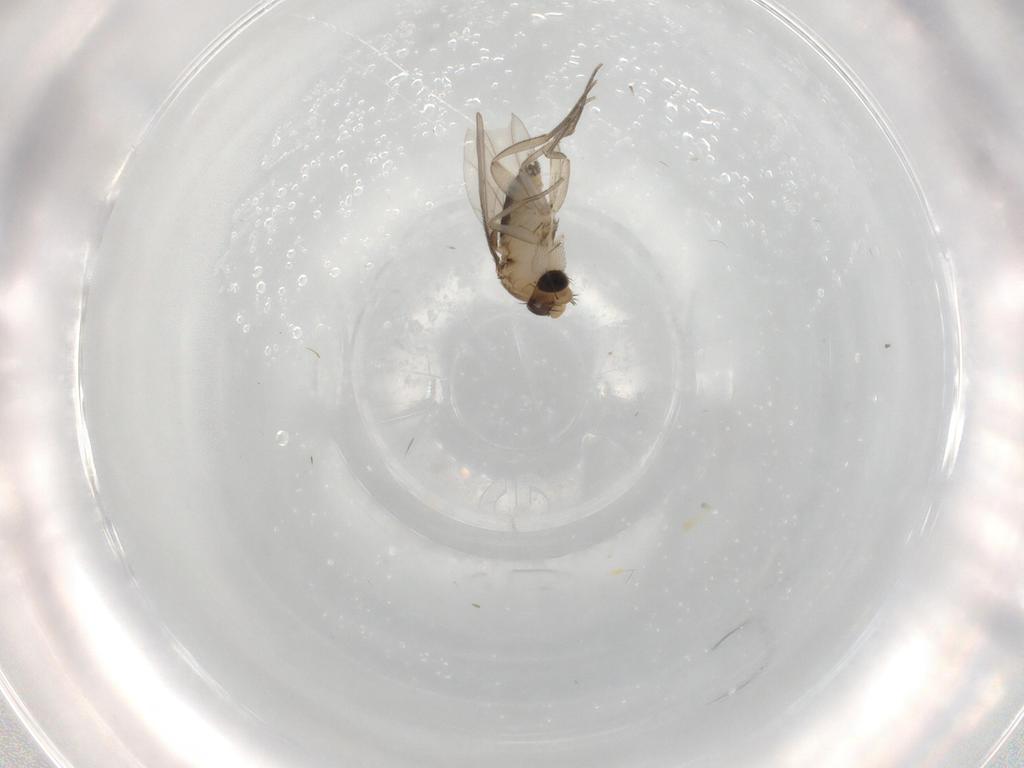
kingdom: Animalia
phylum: Arthropoda
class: Insecta
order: Diptera
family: Phoridae
